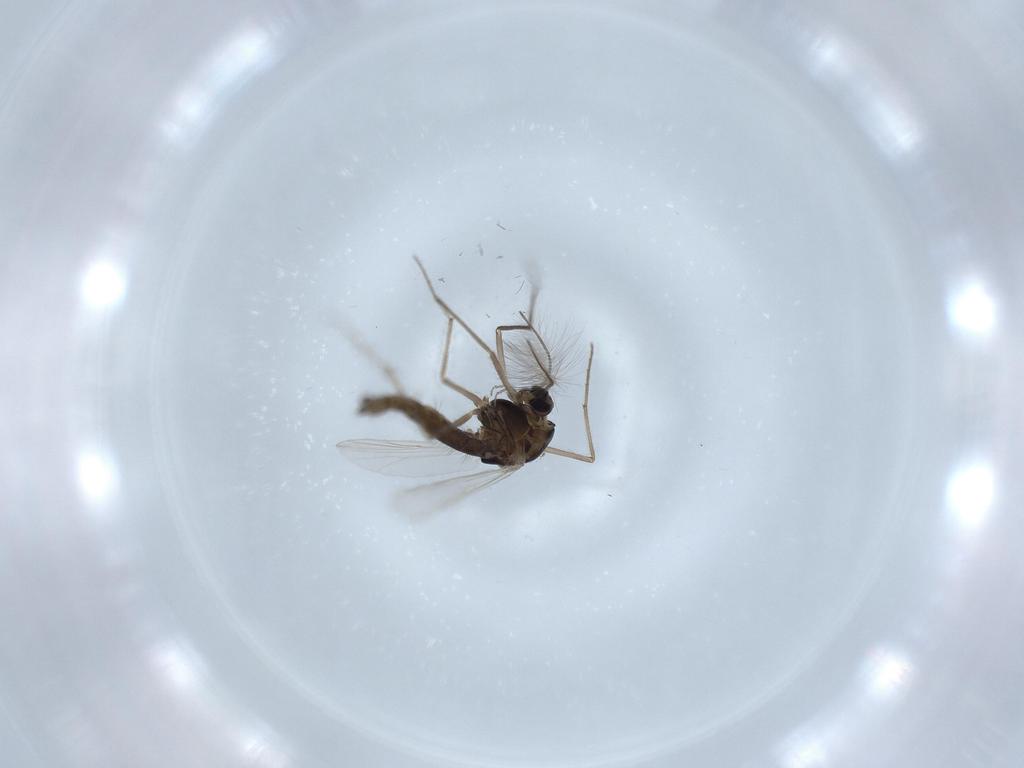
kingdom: Animalia
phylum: Arthropoda
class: Insecta
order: Diptera
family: Chironomidae
